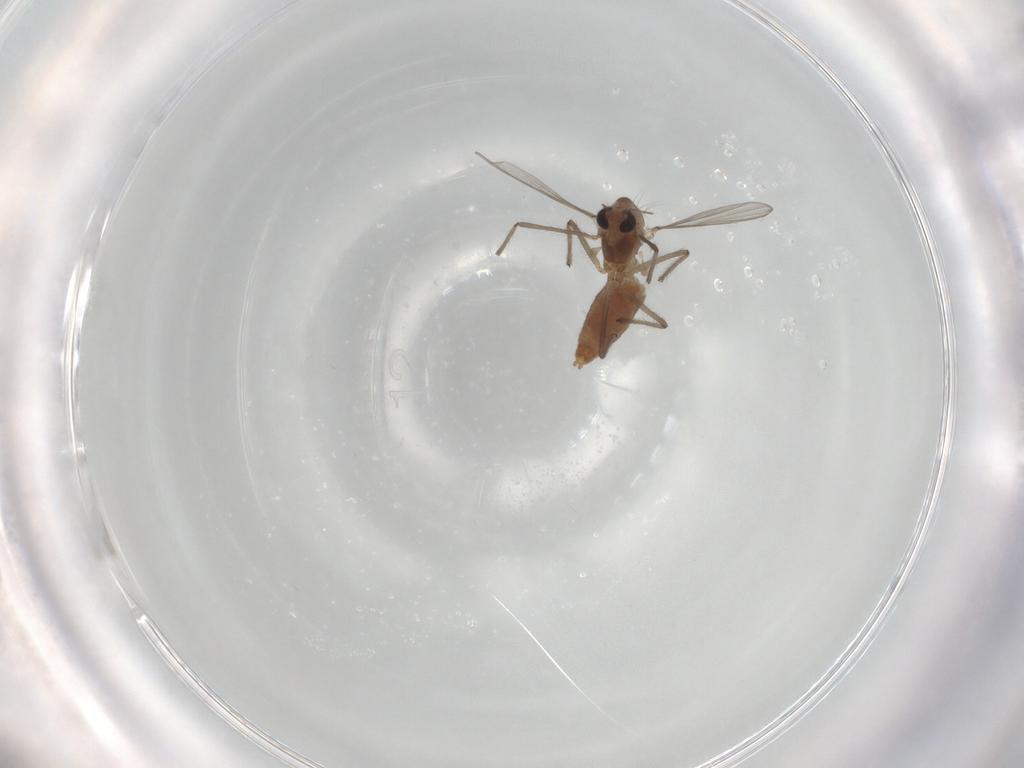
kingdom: Animalia
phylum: Arthropoda
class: Insecta
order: Diptera
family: Chironomidae
